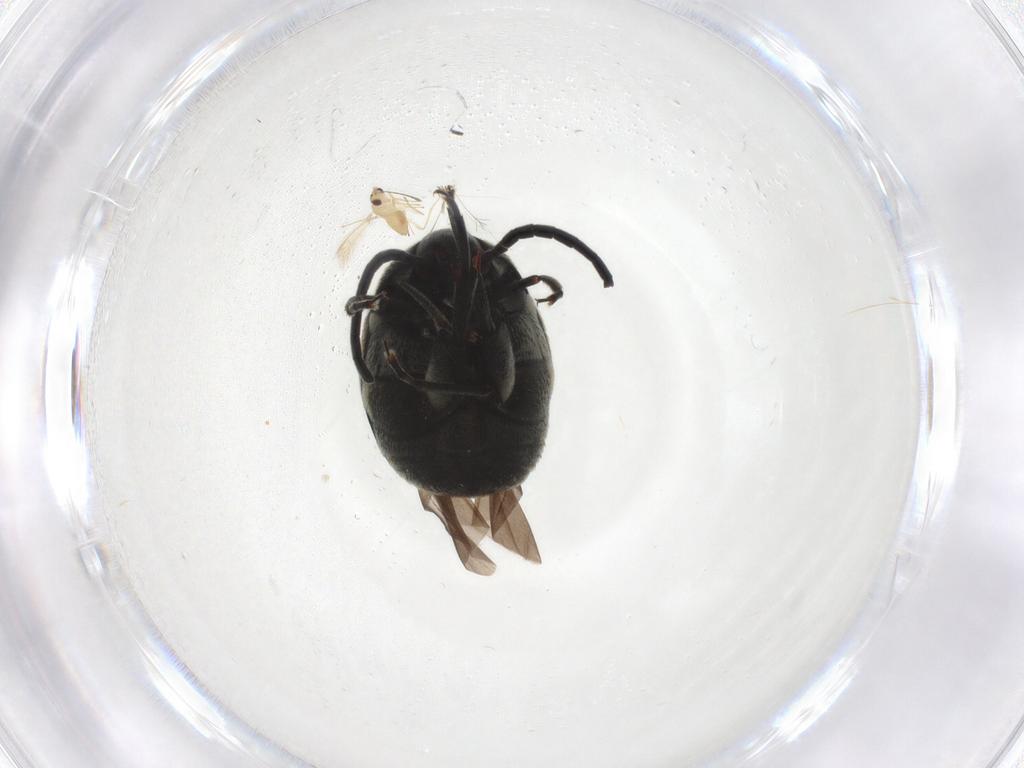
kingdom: Animalia
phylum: Arthropoda
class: Insecta
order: Hymenoptera
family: Mymaridae
